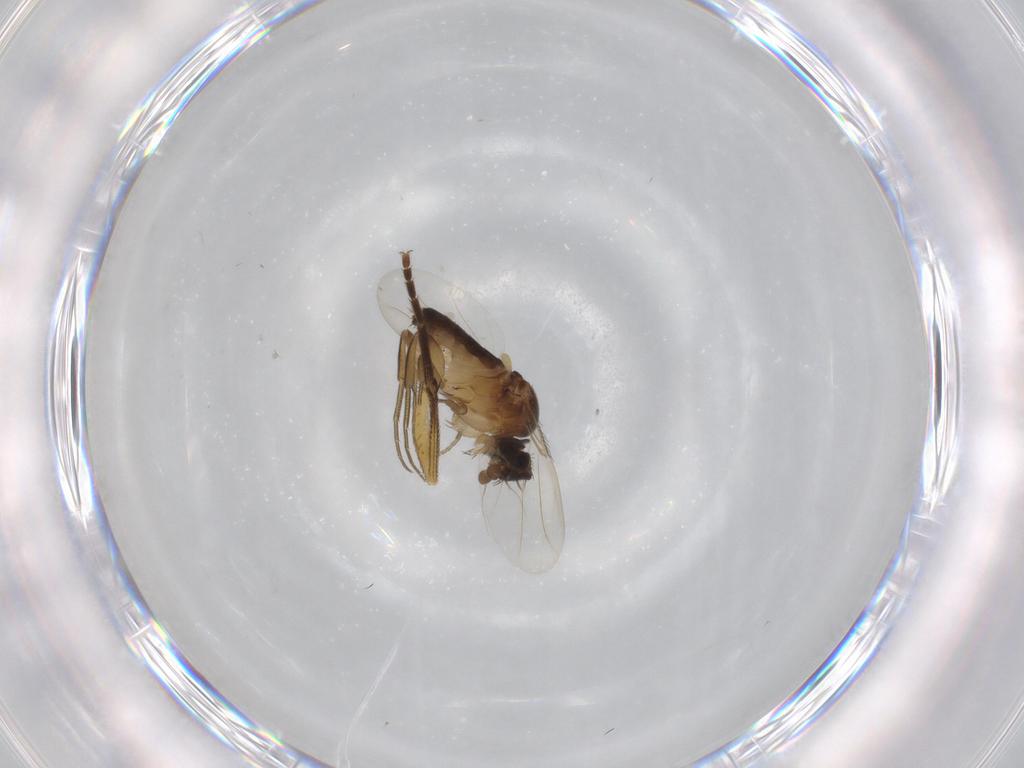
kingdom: Animalia
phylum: Arthropoda
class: Insecta
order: Diptera
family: Phoridae
